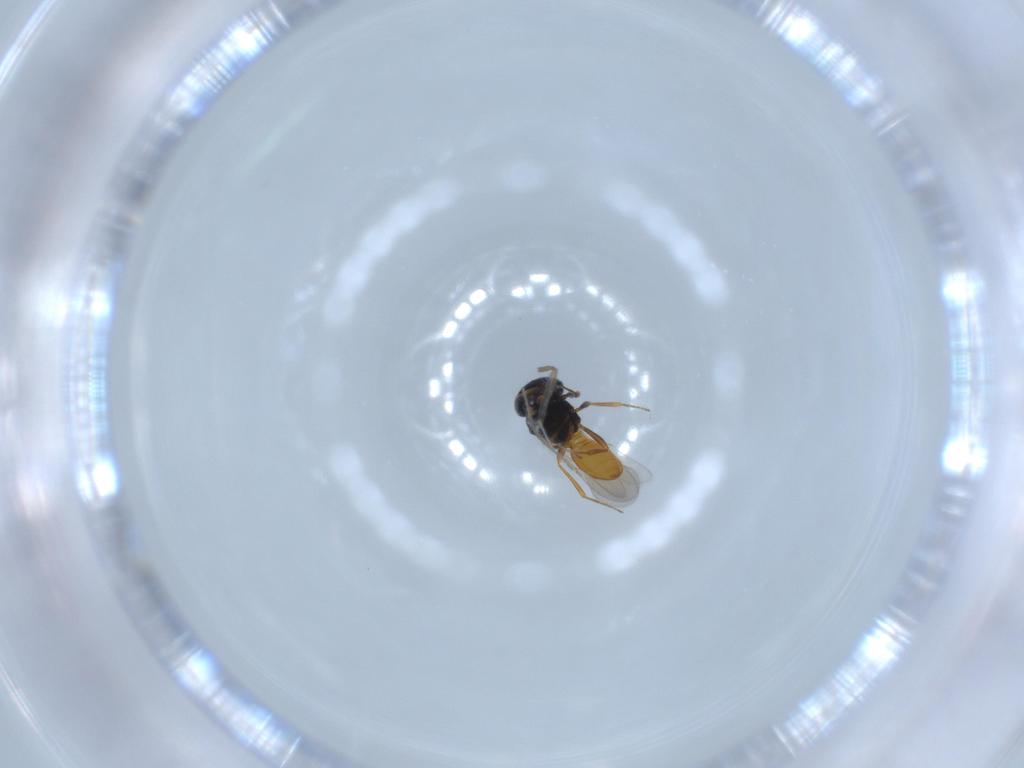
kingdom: Animalia
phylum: Arthropoda
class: Insecta
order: Hymenoptera
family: Scelionidae
